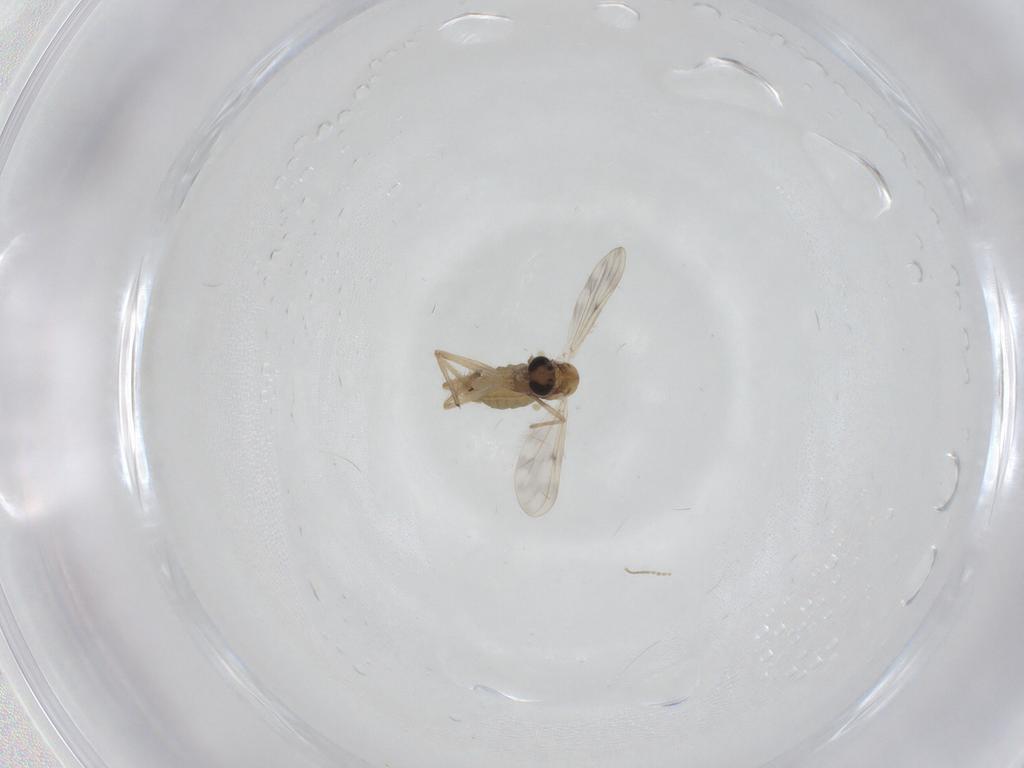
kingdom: Animalia
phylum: Arthropoda
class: Insecta
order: Diptera
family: Chironomidae
